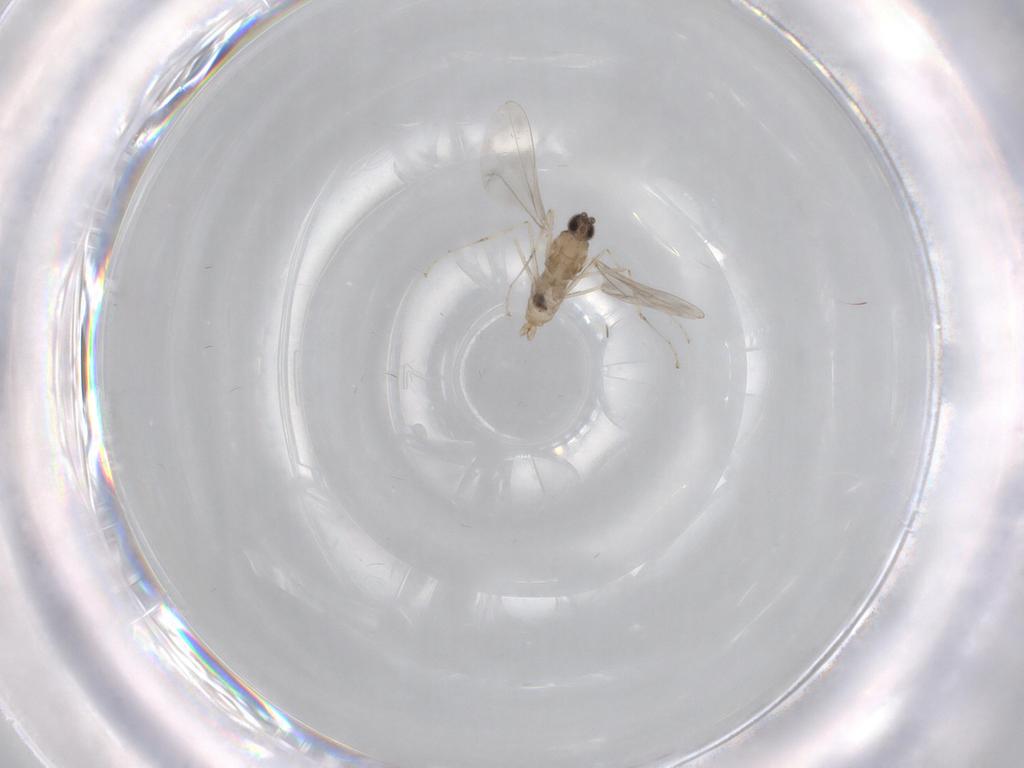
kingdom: Animalia
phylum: Arthropoda
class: Insecta
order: Diptera
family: Cecidomyiidae
